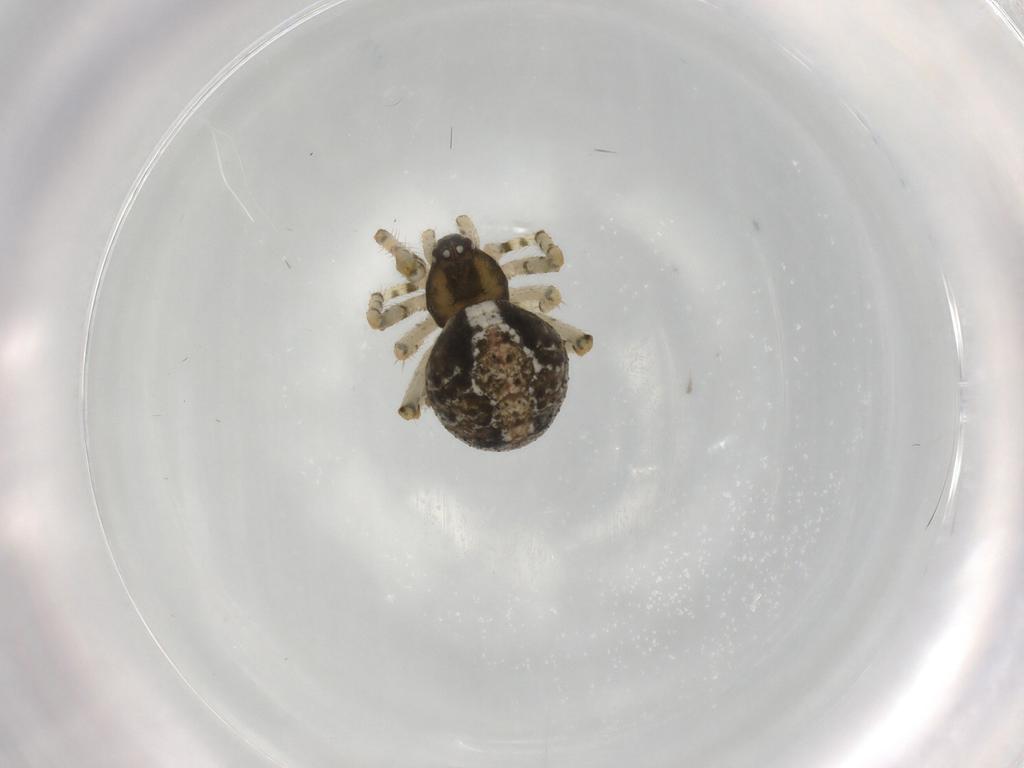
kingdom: Animalia
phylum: Arthropoda
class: Arachnida
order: Araneae
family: Theridiidae
